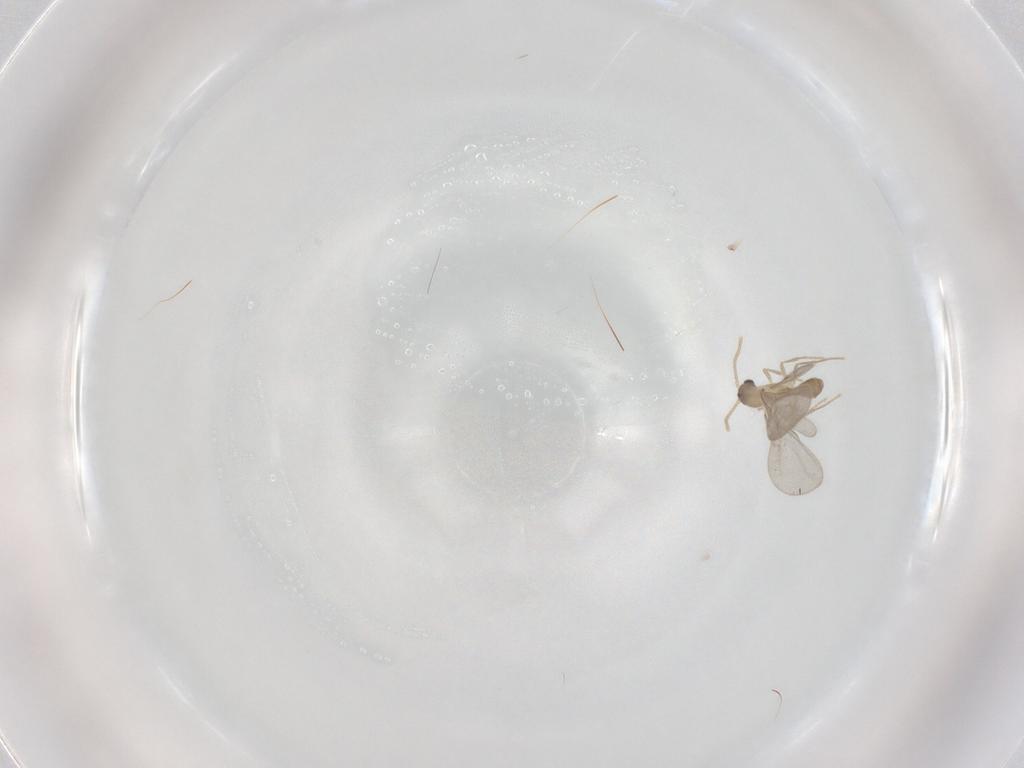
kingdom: Animalia
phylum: Arthropoda
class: Insecta
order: Hymenoptera
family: Formicidae
